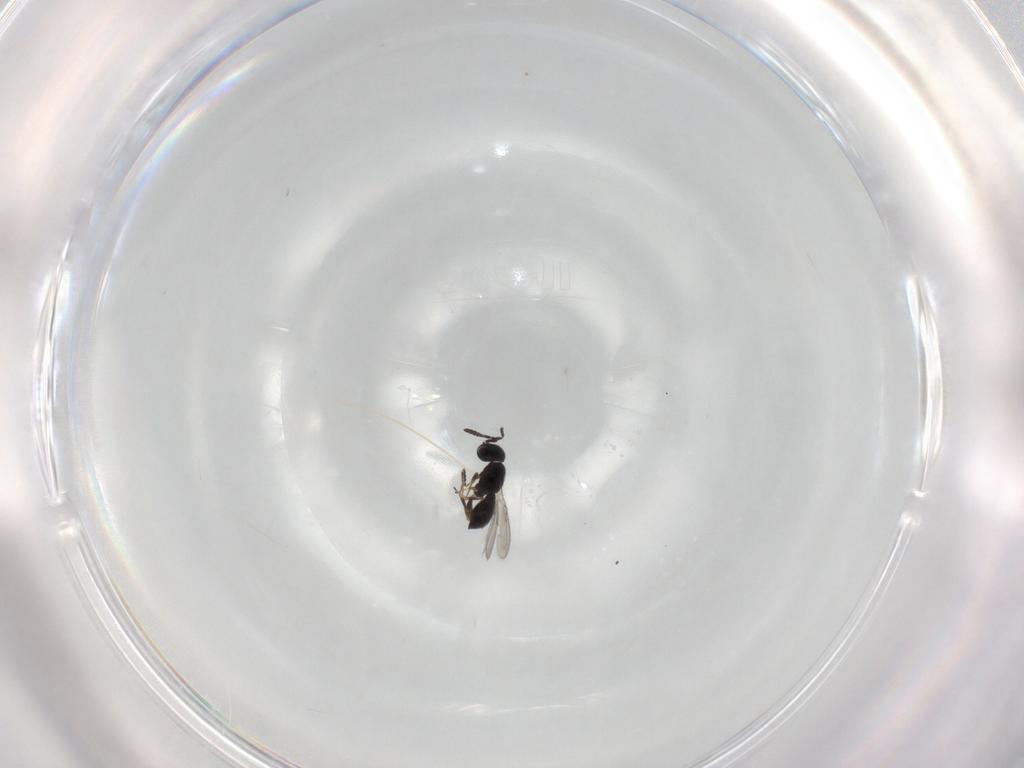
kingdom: Animalia
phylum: Arthropoda
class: Insecta
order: Hymenoptera
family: Scelionidae
